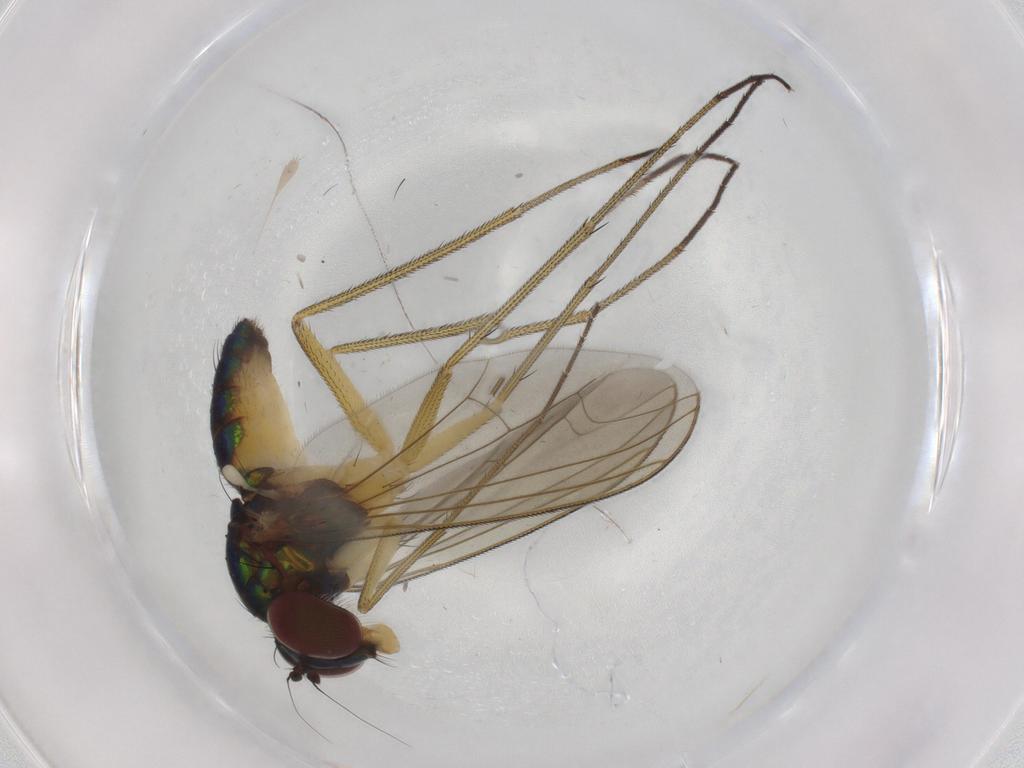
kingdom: Animalia
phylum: Arthropoda
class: Insecta
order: Diptera
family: Dolichopodidae
